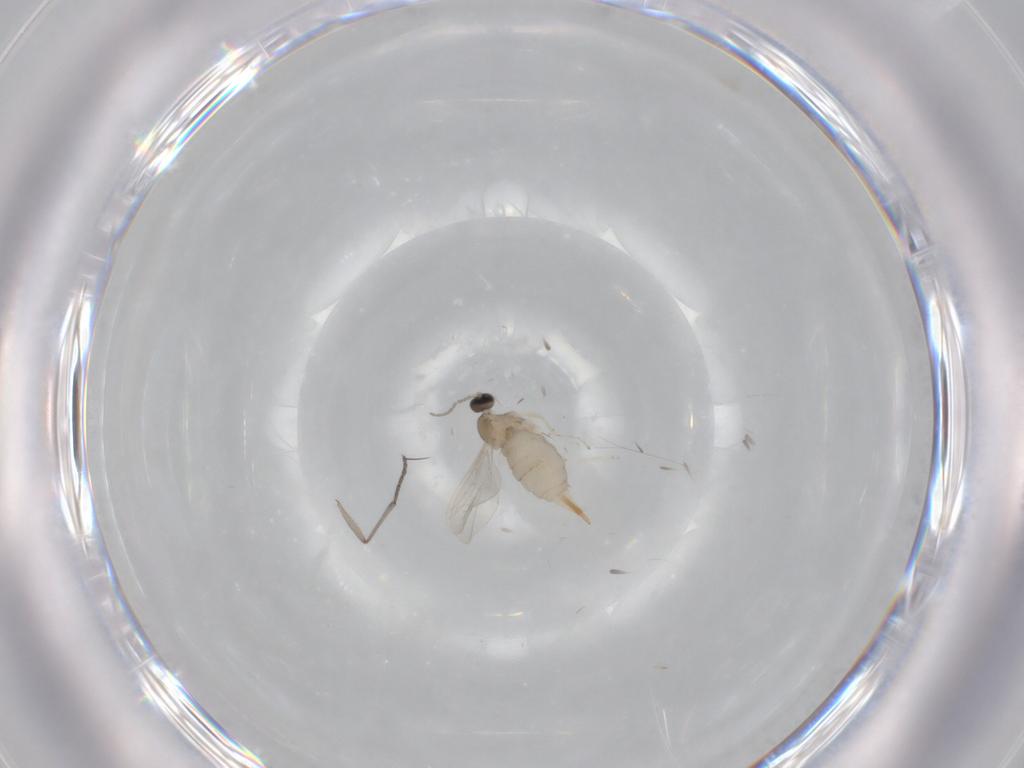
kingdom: Animalia
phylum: Arthropoda
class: Insecta
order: Diptera
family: Sciaridae
